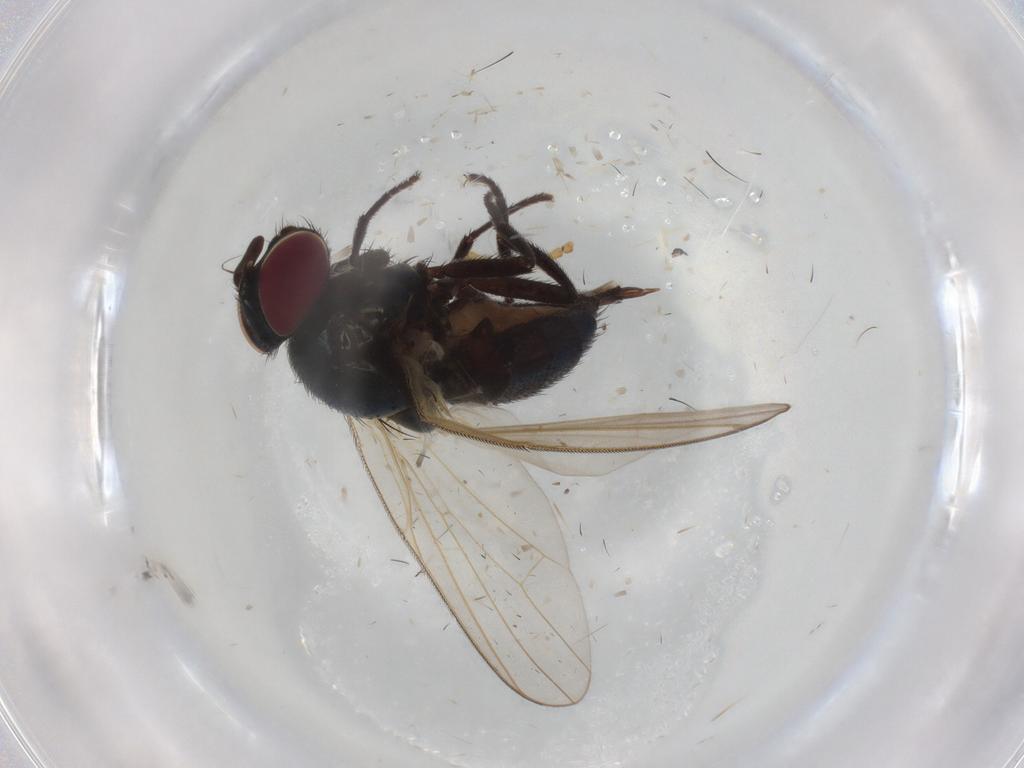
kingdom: Animalia
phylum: Arthropoda
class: Insecta
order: Diptera
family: Lonchaeidae
